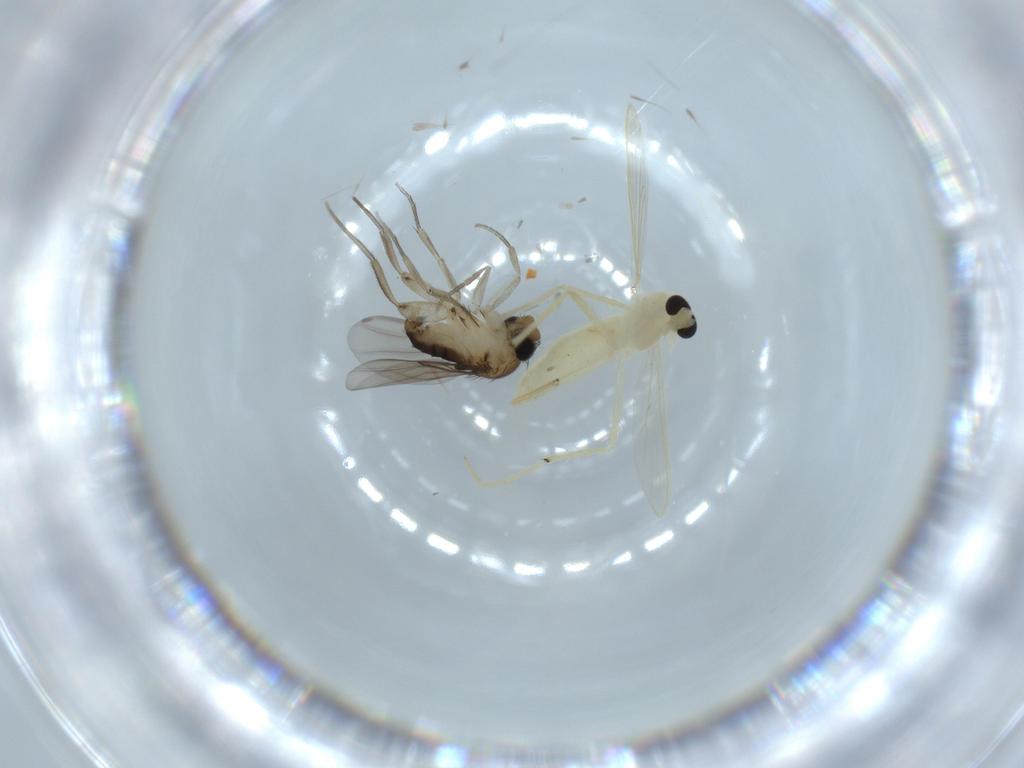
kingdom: Animalia
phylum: Arthropoda
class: Insecta
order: Diptera
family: Chironomidae
